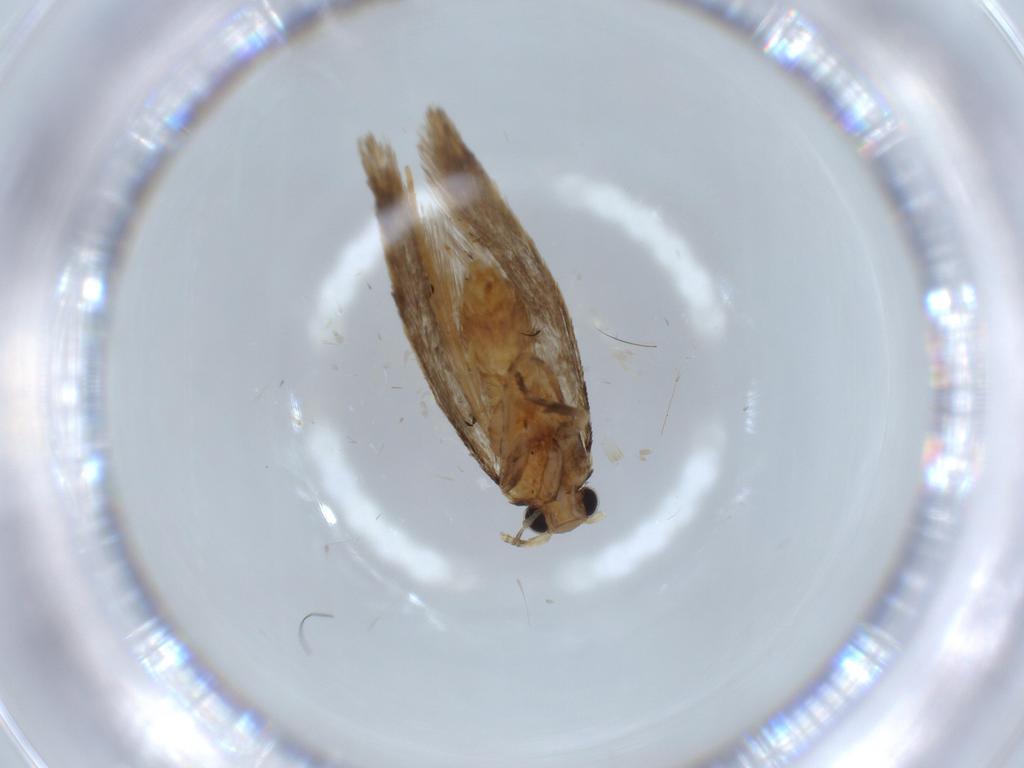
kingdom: Animalia
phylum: Arthropoda
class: Insecta
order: Lepidoptera
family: Tineidae
